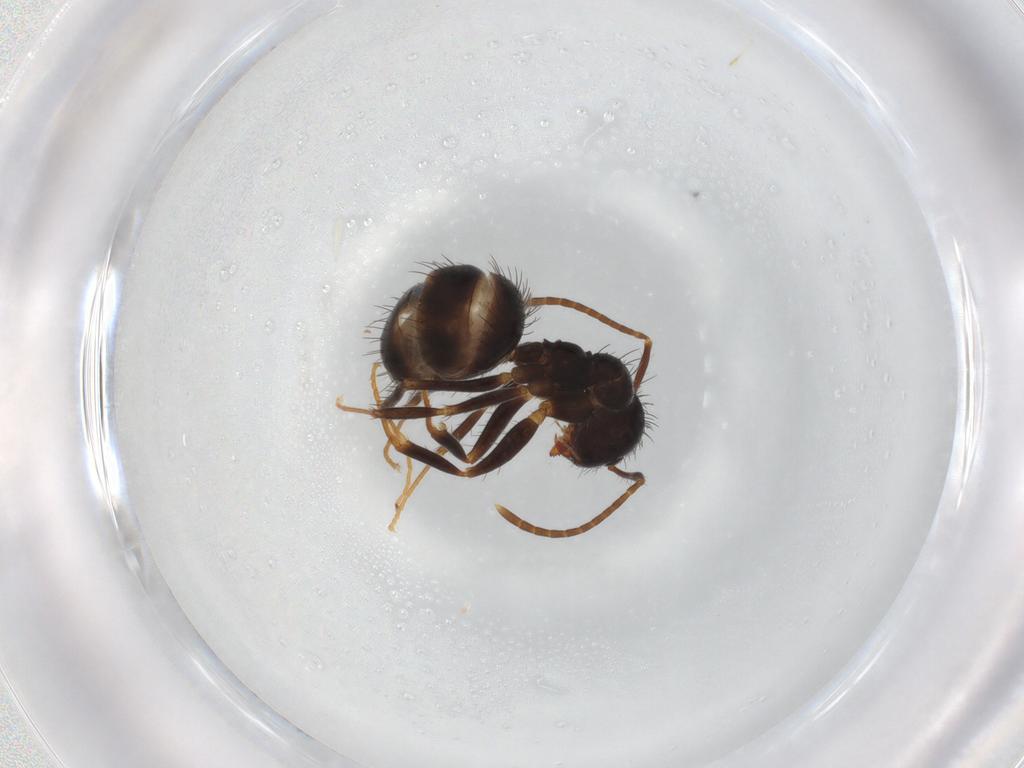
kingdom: Animalia
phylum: Arthropoda
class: Insecta
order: Hymenoptera
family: Formicidae
